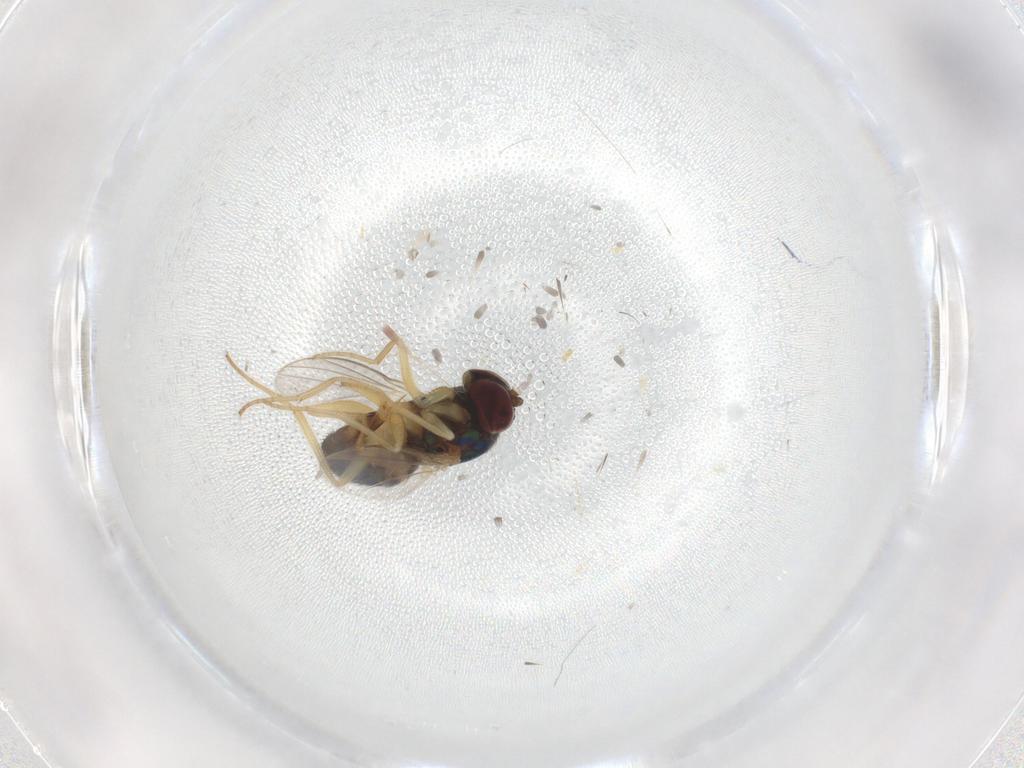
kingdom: Animalia
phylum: Arthropoda
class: Insecta
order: Diptera
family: Dolichopodidae
